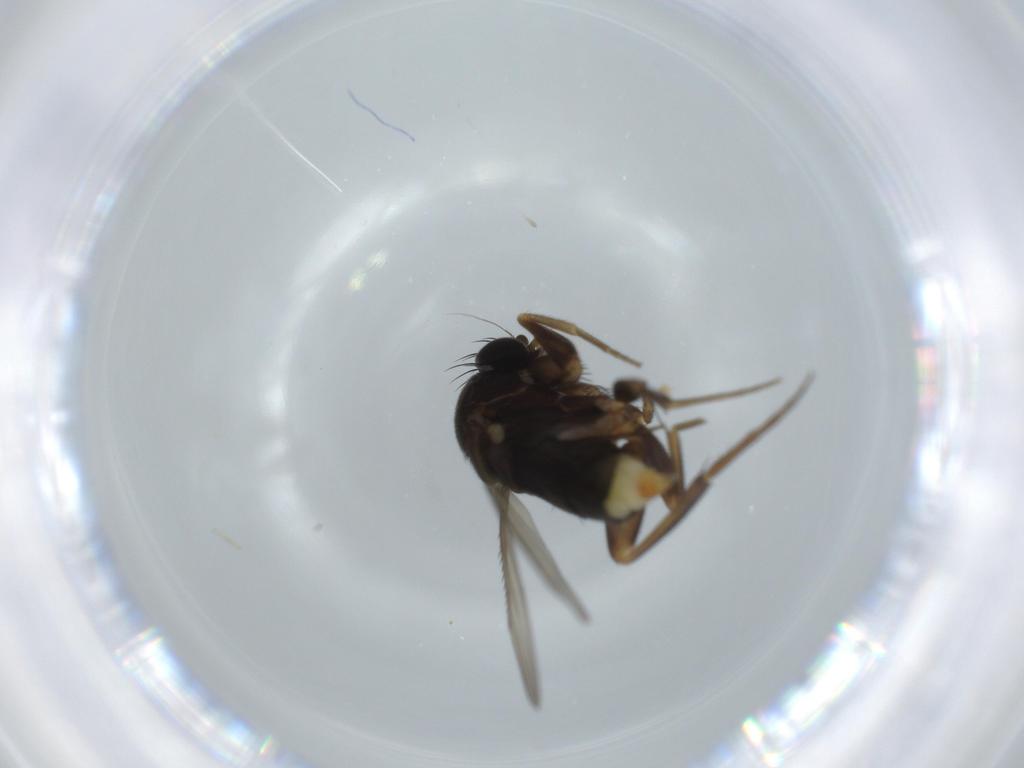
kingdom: Animalia
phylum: Arthropoda
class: Insecta
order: Diptera
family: Phoridae
